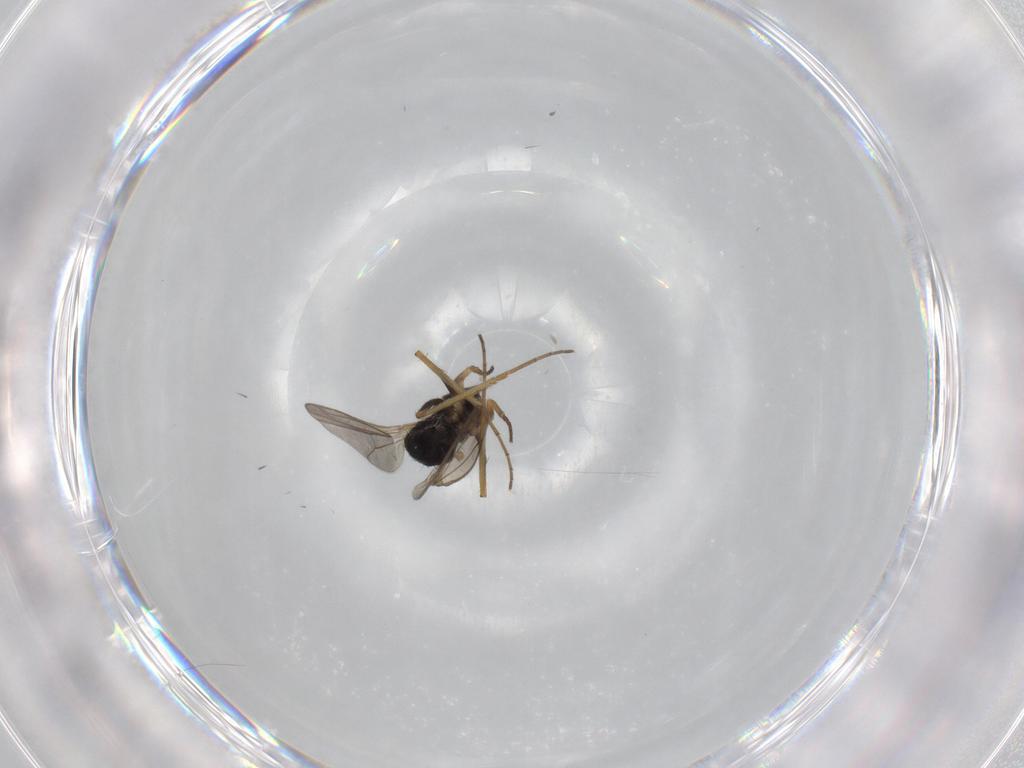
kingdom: Animalia
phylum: Arthropoda
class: Insecta
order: Diptera
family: Dolichopodidae
